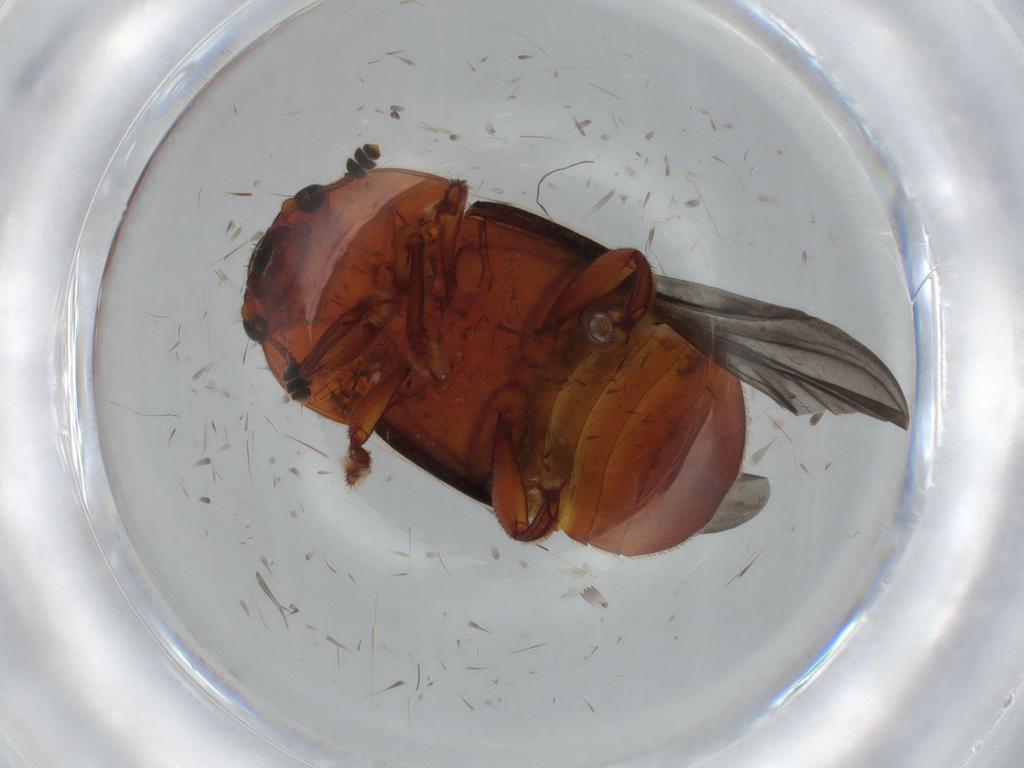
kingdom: Animalia
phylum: Arthropoda
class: Insecta
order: Coleoptera
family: Nitidulidae
